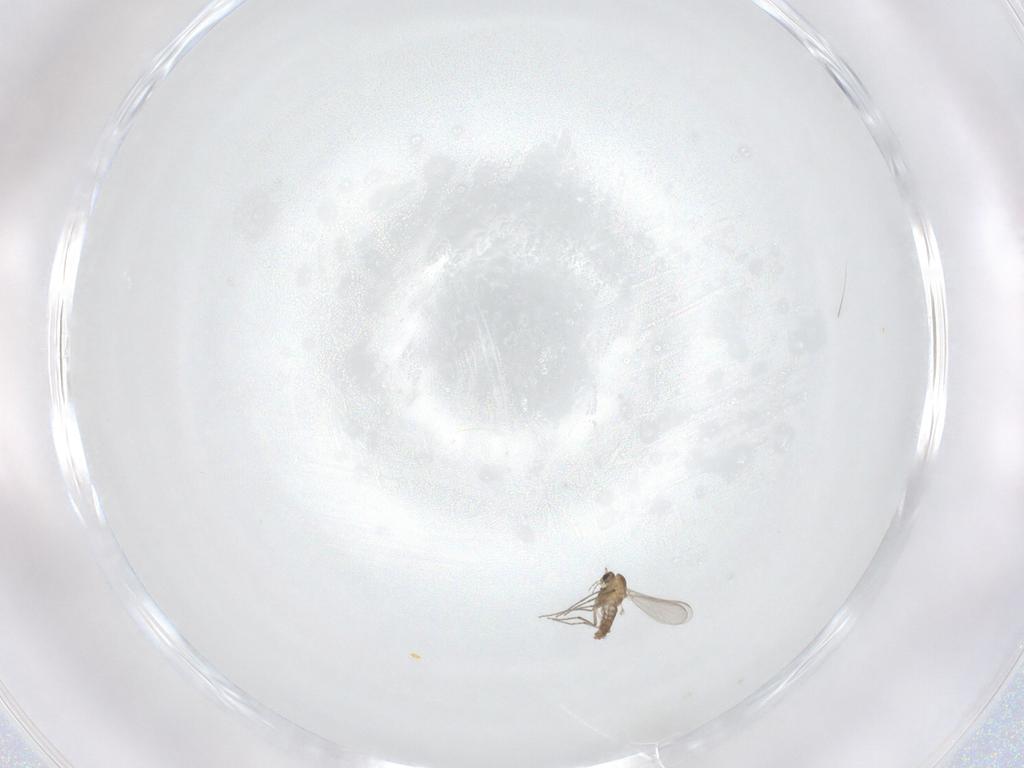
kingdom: Animalia
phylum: Arthropoda
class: Insecta
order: Diptera
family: Chironomidae
